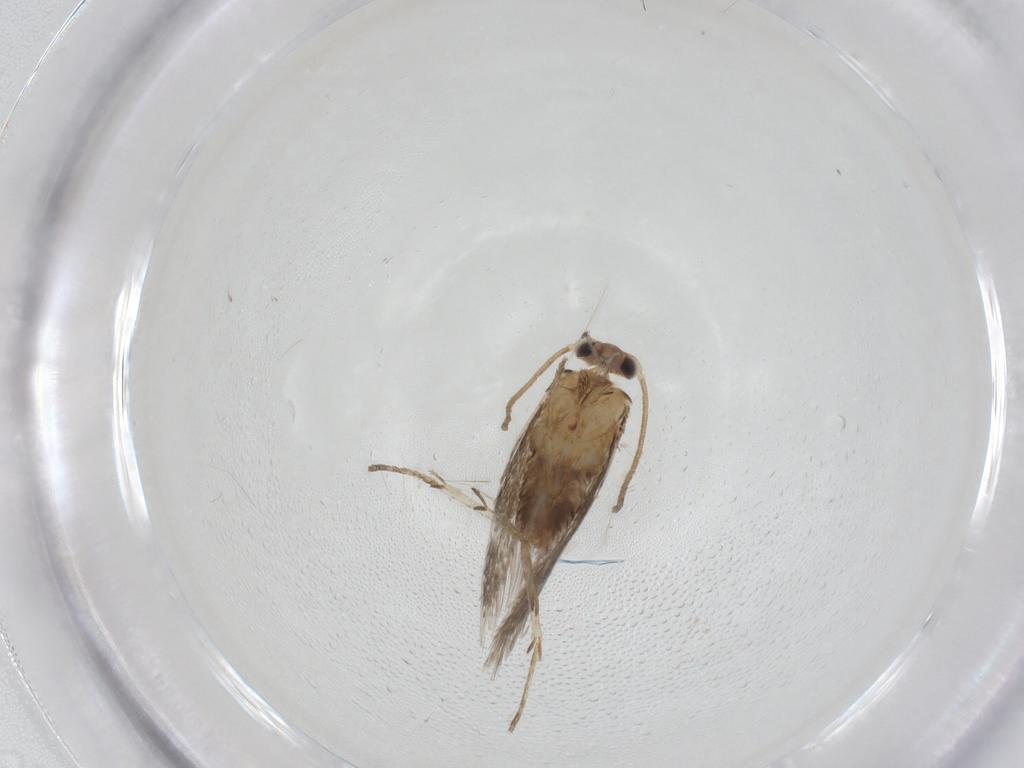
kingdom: Animalia
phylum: Arthropoda
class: Insecta
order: Lepidoptera
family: Nepticulidae
